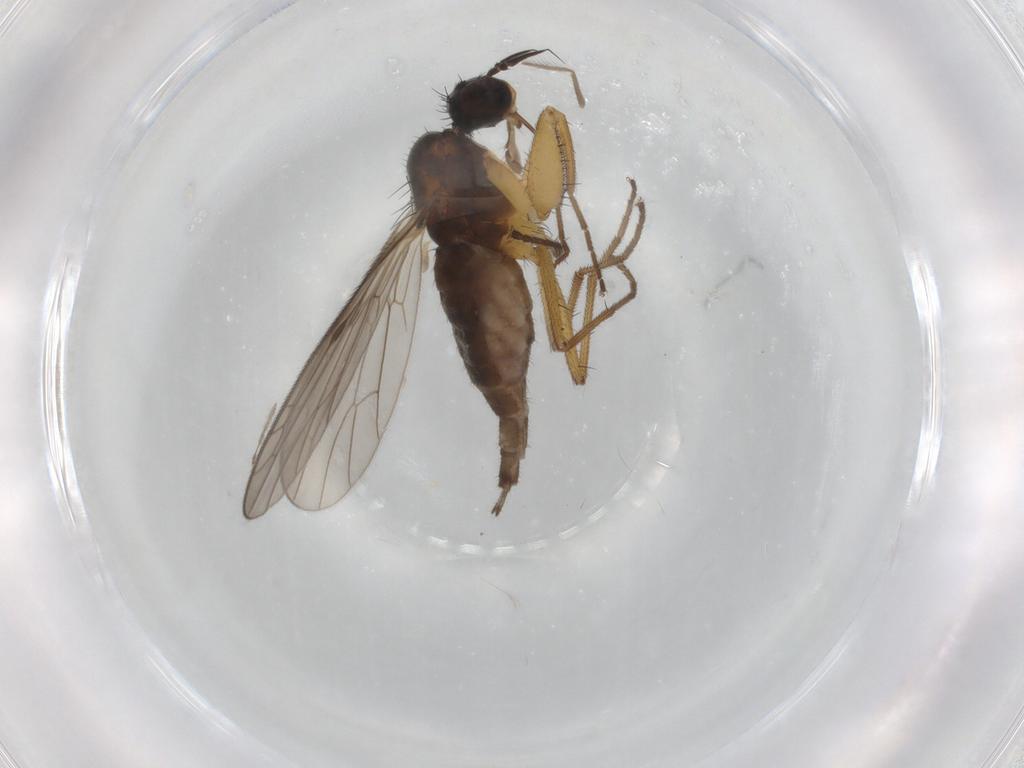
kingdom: Animalia
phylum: Arthropoda
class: Insecta
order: Diptera
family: Chironomidae
